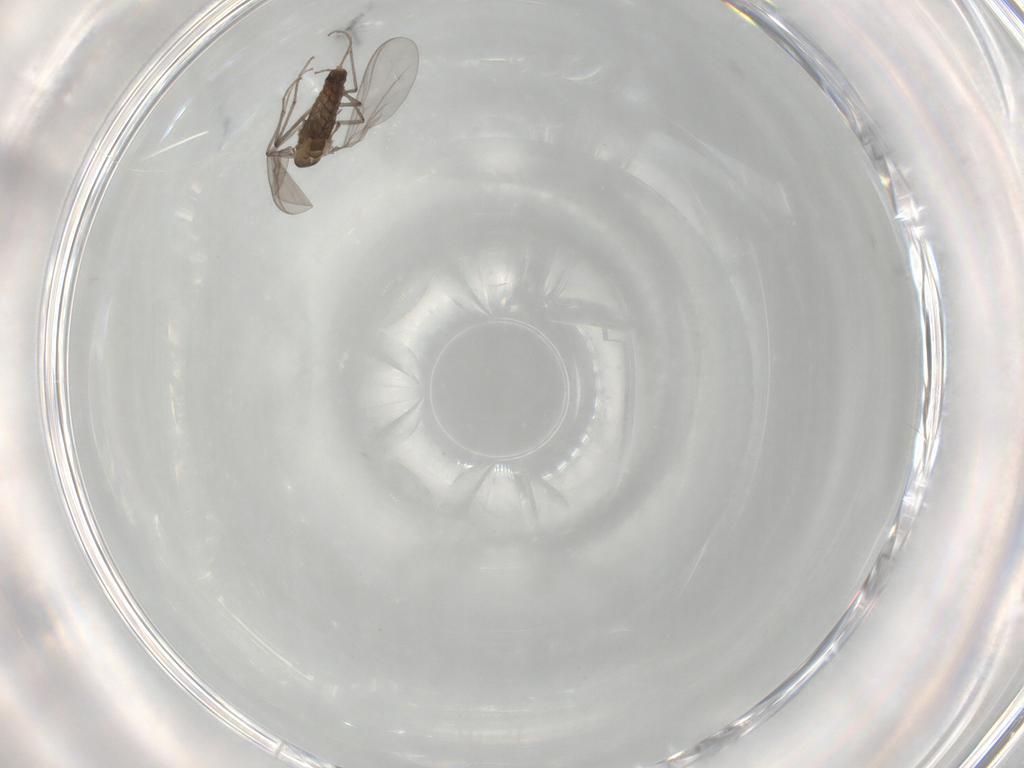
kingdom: Animalia
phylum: Arthropoda
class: Insecta
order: Diptera
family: Chironomidae
